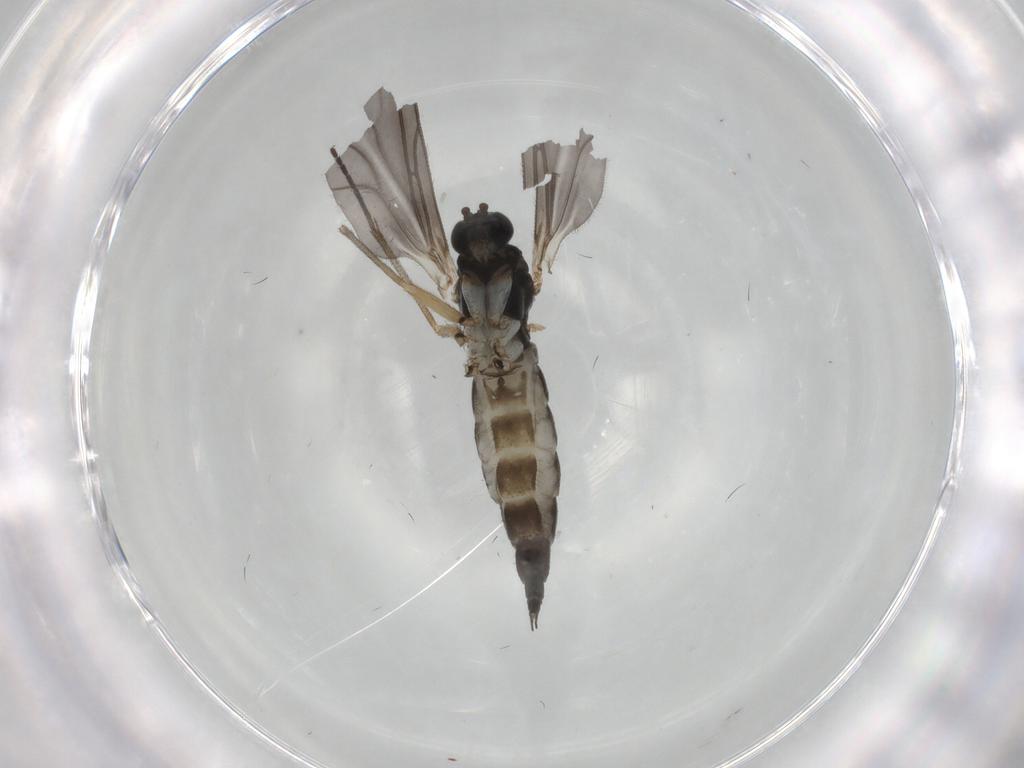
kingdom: Animalia
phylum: Arthropoda
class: Insecta
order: Diptera
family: Sciaridae
